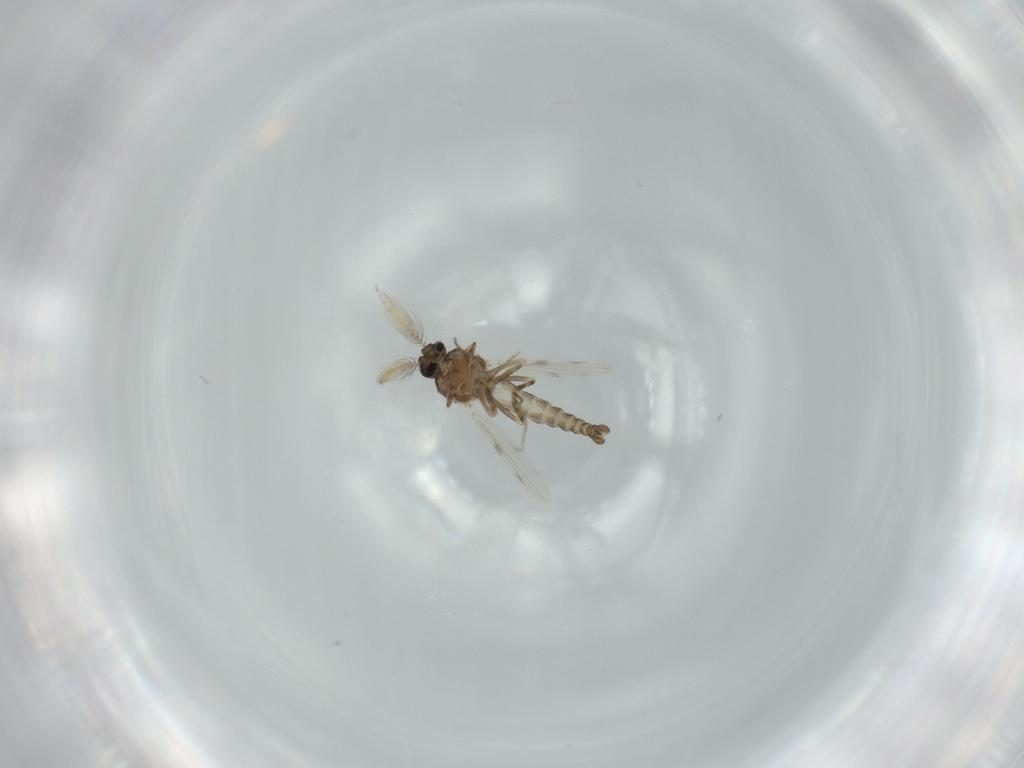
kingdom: Animalia
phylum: Arthropoda
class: Insecta
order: Diptera
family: Ceratopogonidae
